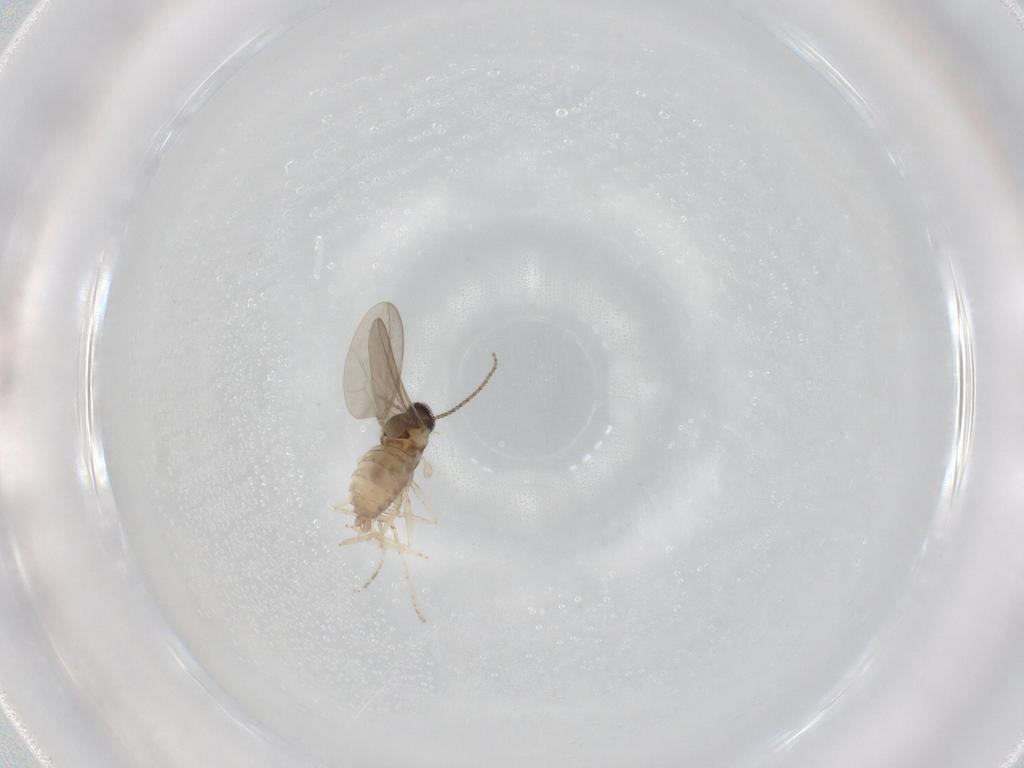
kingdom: Animalia
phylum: Arthropoda
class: Insecta
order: Diptera
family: Cecidomyiidae
